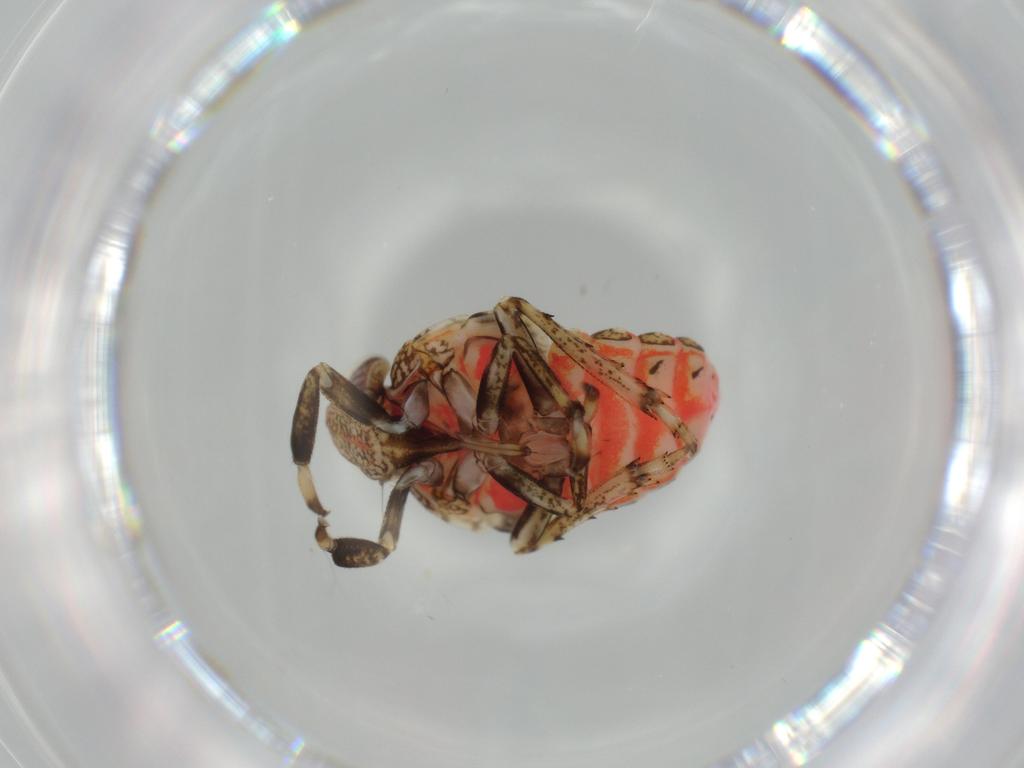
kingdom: Animalia
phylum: Arthropoda
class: Insecta
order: Hemiptera
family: Issidae
